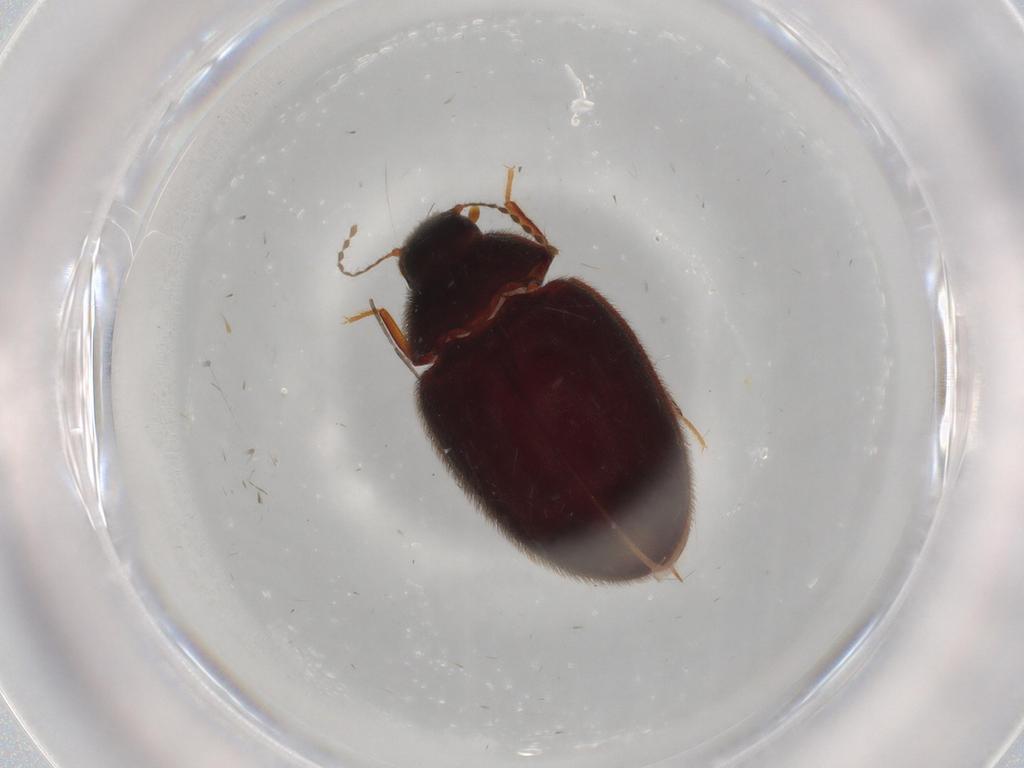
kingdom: Animalia
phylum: Arthropoda
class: Insecta
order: Coleoptera
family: Limnichidae
